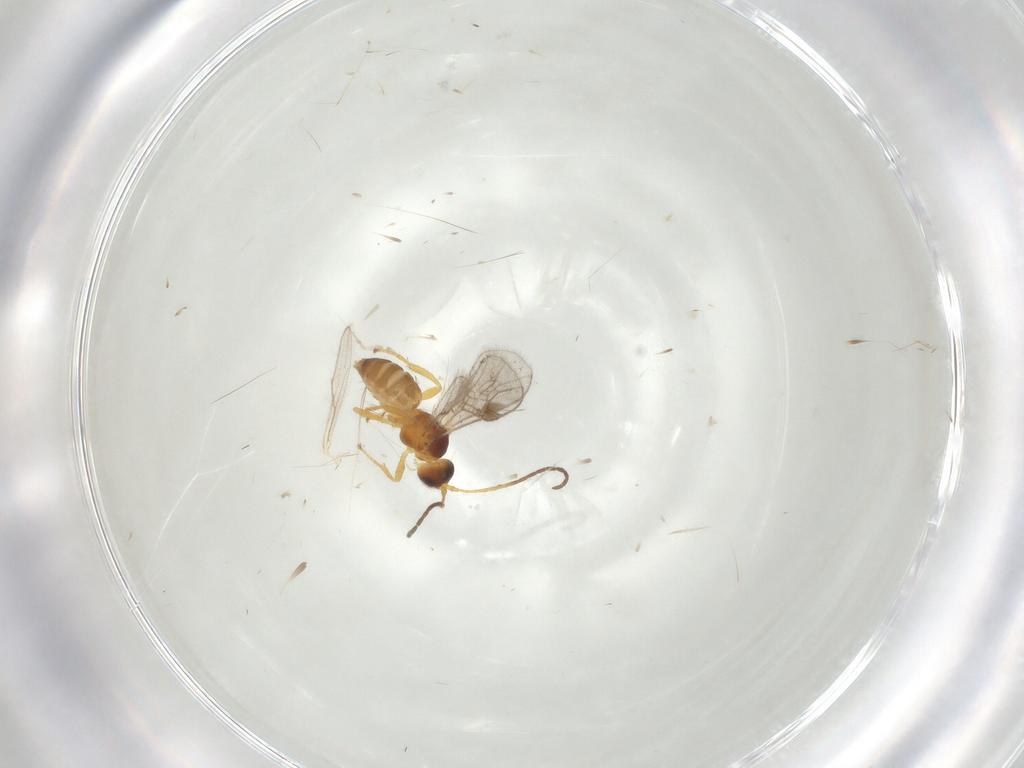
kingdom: Animalia
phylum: Arthropoda
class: Insecta
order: Hymenoptera
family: Braconidae
